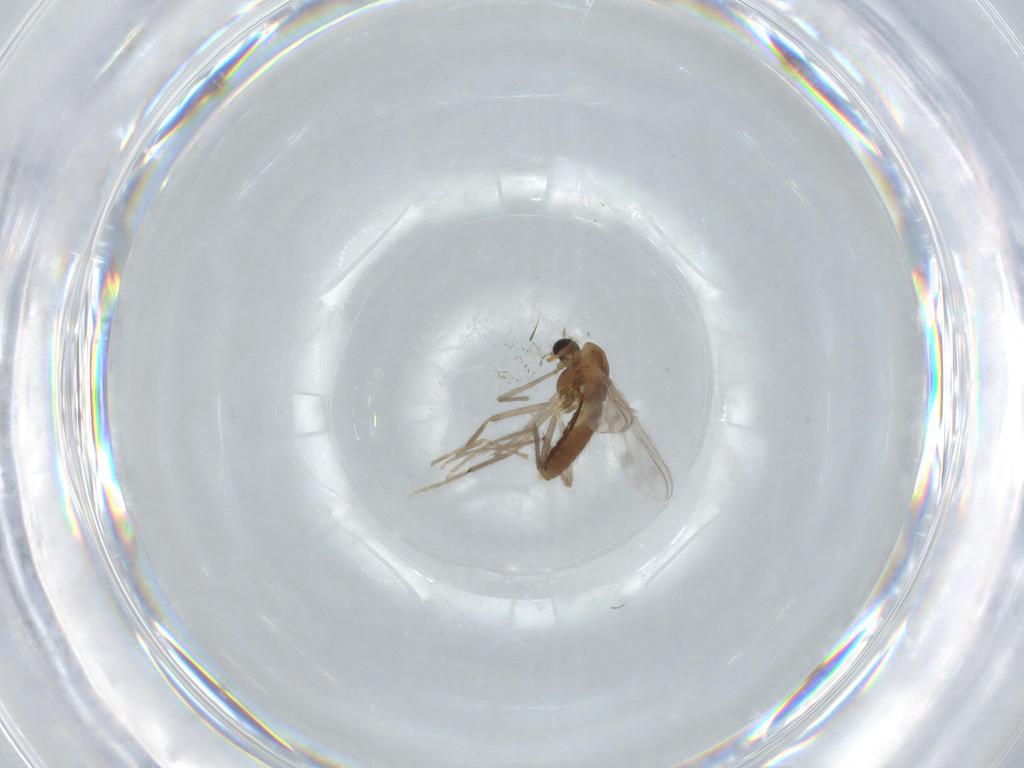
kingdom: Animalia
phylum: Arthropoda
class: Insecta
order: Diptera
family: Chironomidae
